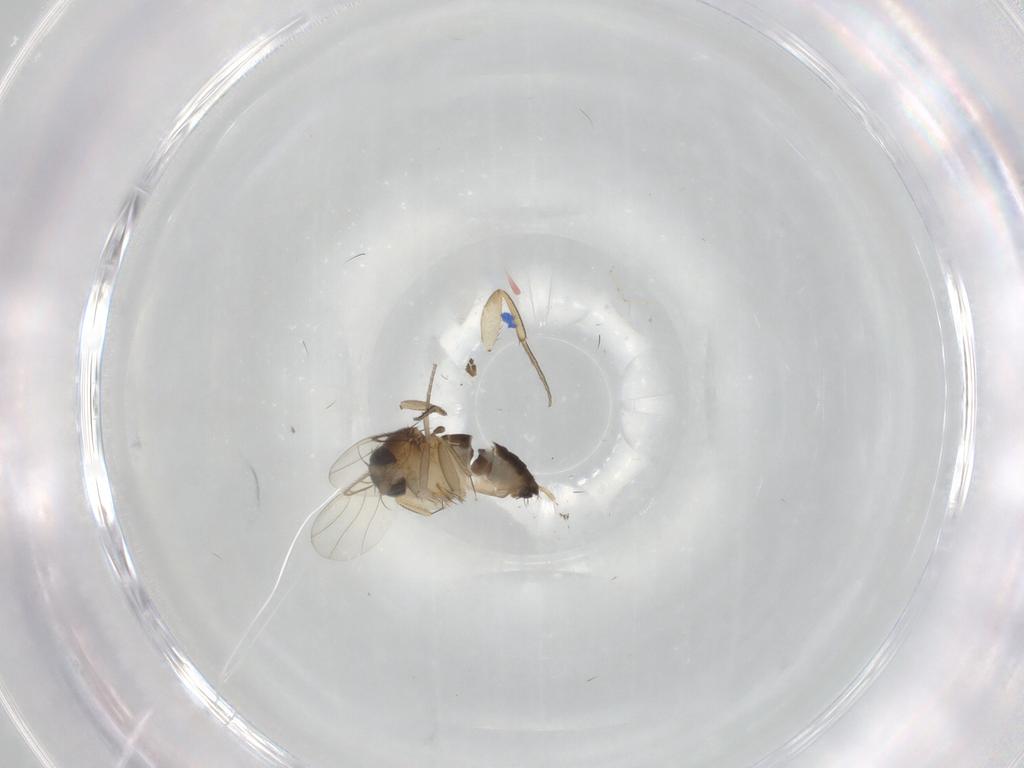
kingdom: Animalia
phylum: Arthropoda
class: Insecta
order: Diptera
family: Phoridae
